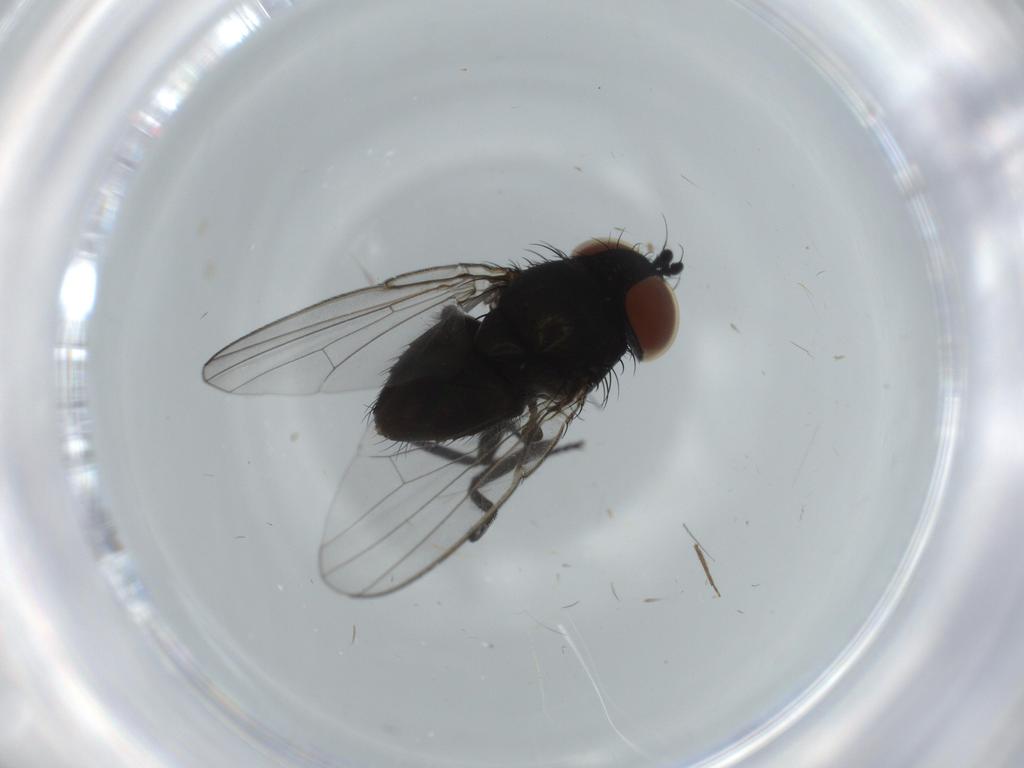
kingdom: Animalia
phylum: Arthropoda
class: Insecta
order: Diptera
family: Milichiidae
